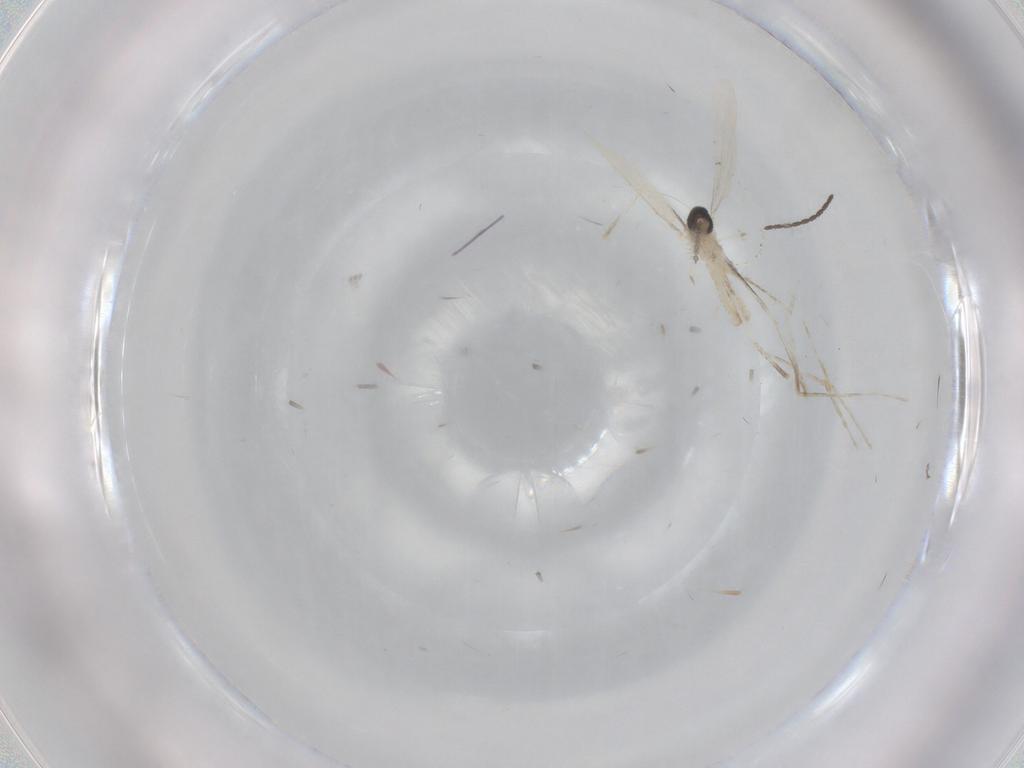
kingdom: Animalia
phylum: Arthropoda
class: Insecta
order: Diptera
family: Cecidomyiidae
